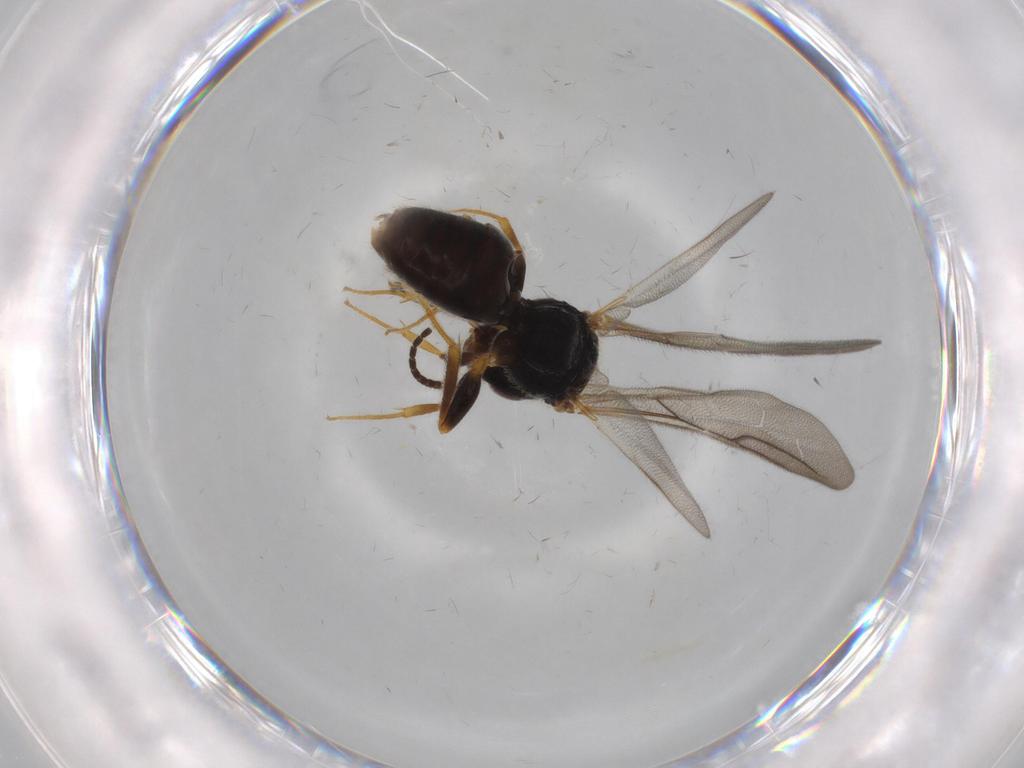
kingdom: Animalia
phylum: Arthropoda
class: Insecta
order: Hymenoptera
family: Bethylidae
